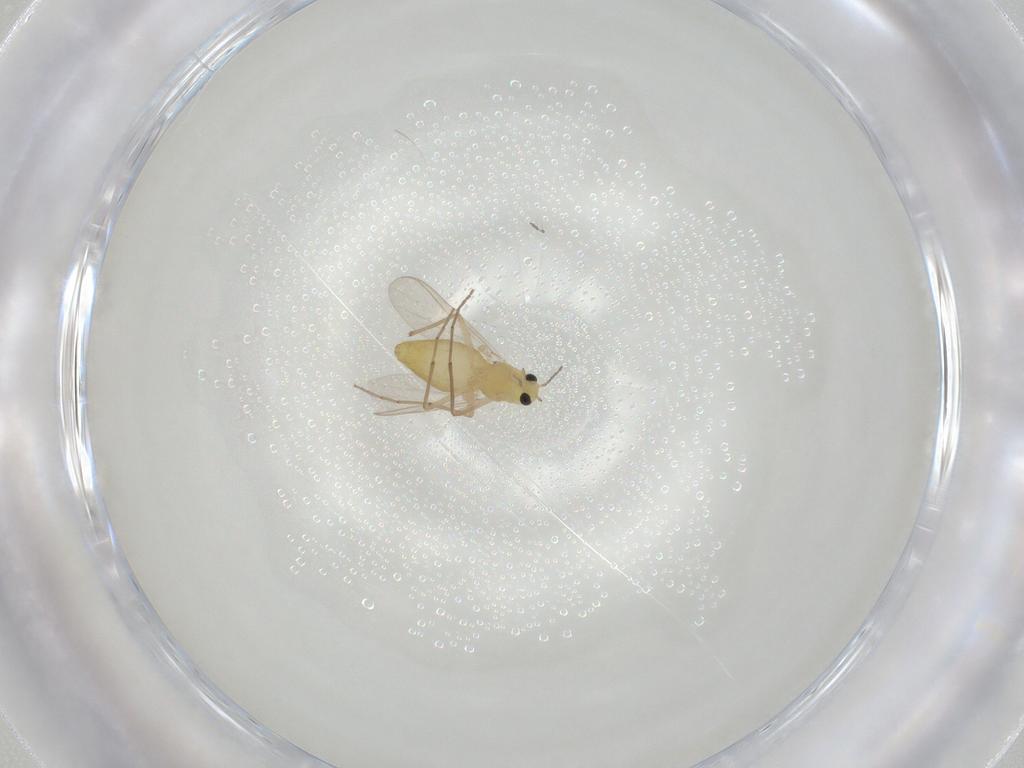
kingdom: Animalia
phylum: Arthropoda
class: Insecta
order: Diptera
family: Chironomidae
